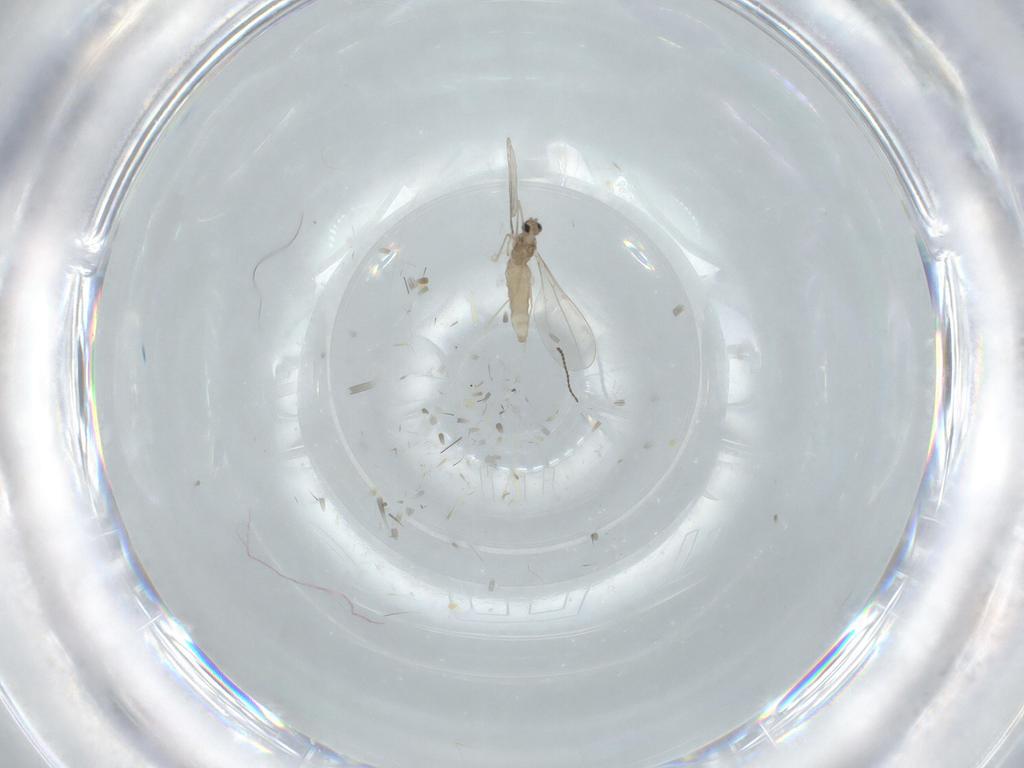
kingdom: Animalia
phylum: Arthropoda
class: Insecta
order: Diptera
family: Cecidomyiidae
